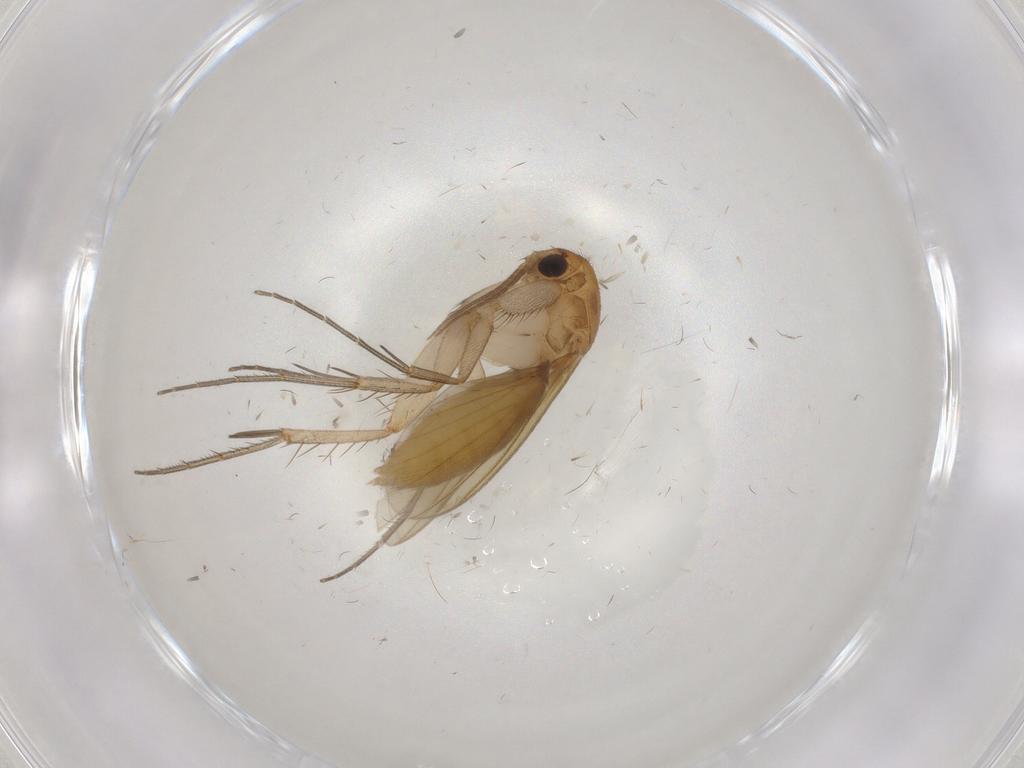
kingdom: Animalia
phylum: Arthropoda
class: Insecta
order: Diptera
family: Mycetophilidae
